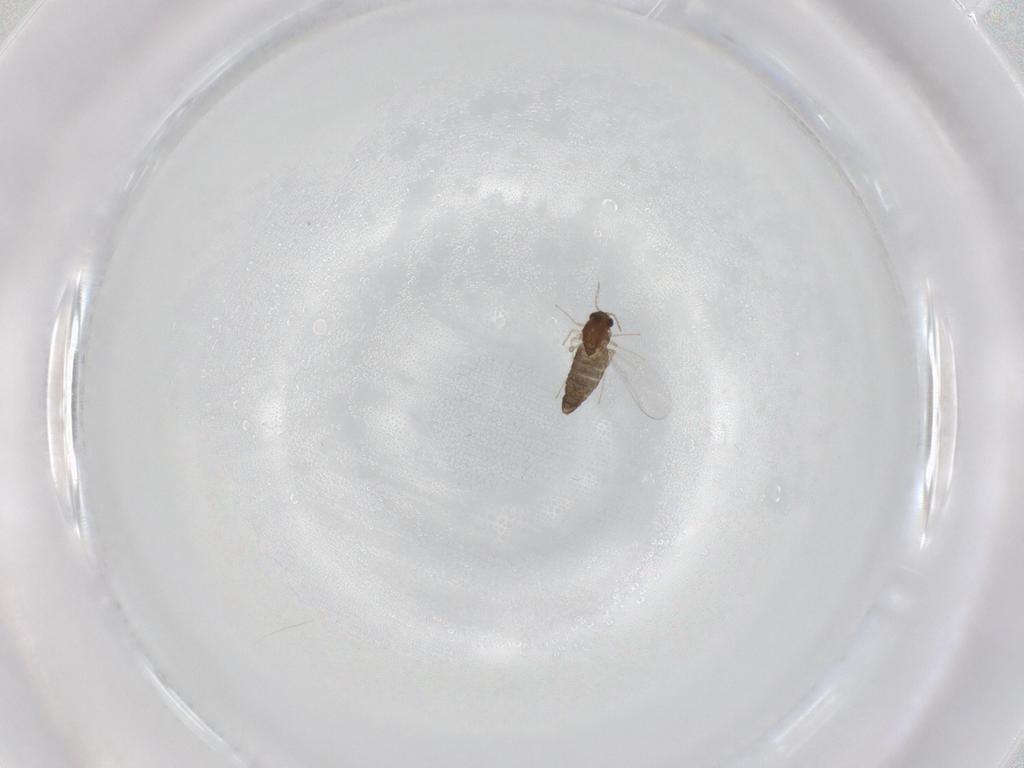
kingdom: Animalia
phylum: Arthropoda
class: Insecta
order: Diptera
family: Chironomidae
